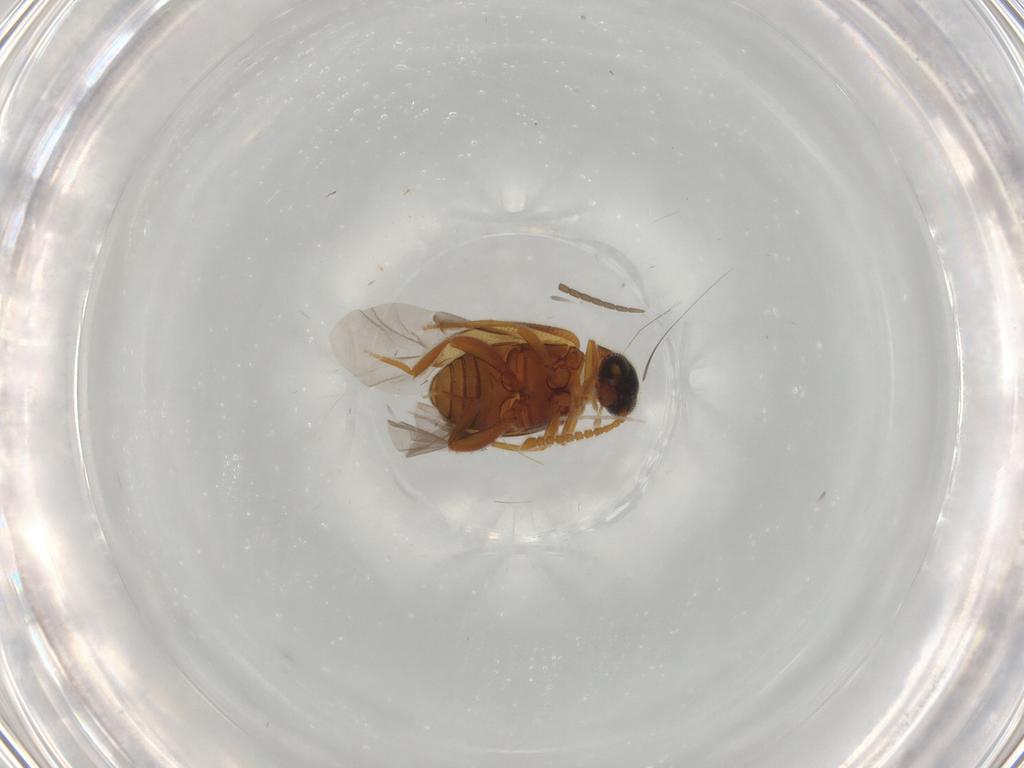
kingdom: Animalia
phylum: Arthropoda
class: Insecta
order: Coleoptera
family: Aderidae
